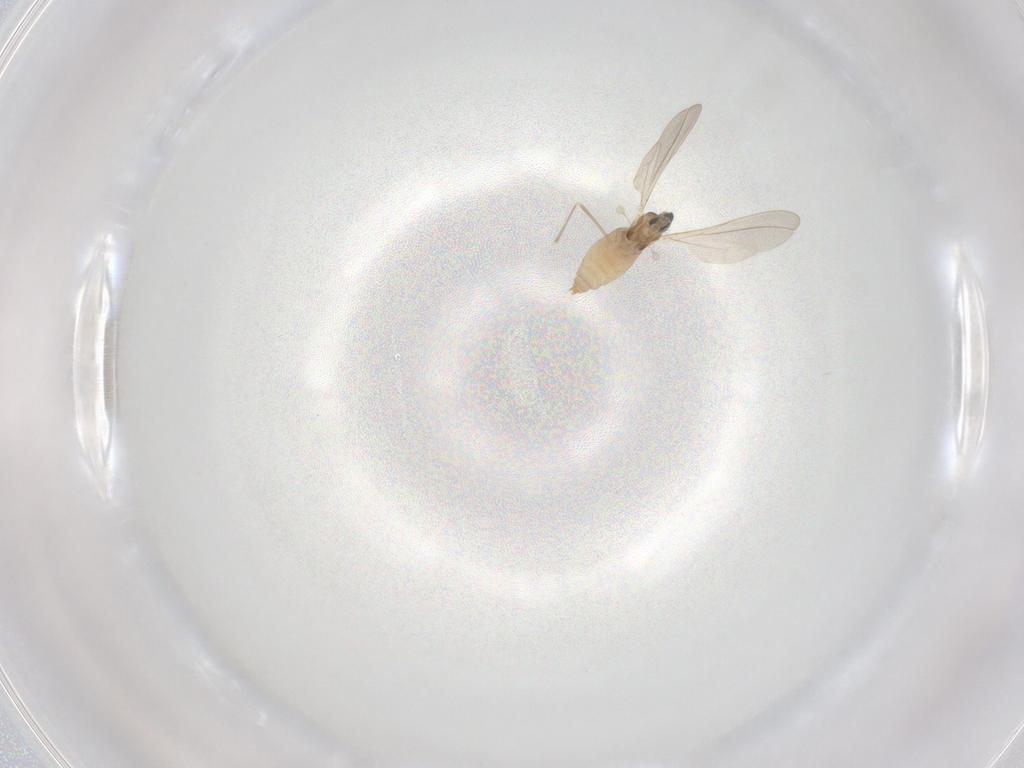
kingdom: Animalia
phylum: Arthropoda
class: Insecta
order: Diptera
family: Cecidomyiidae
